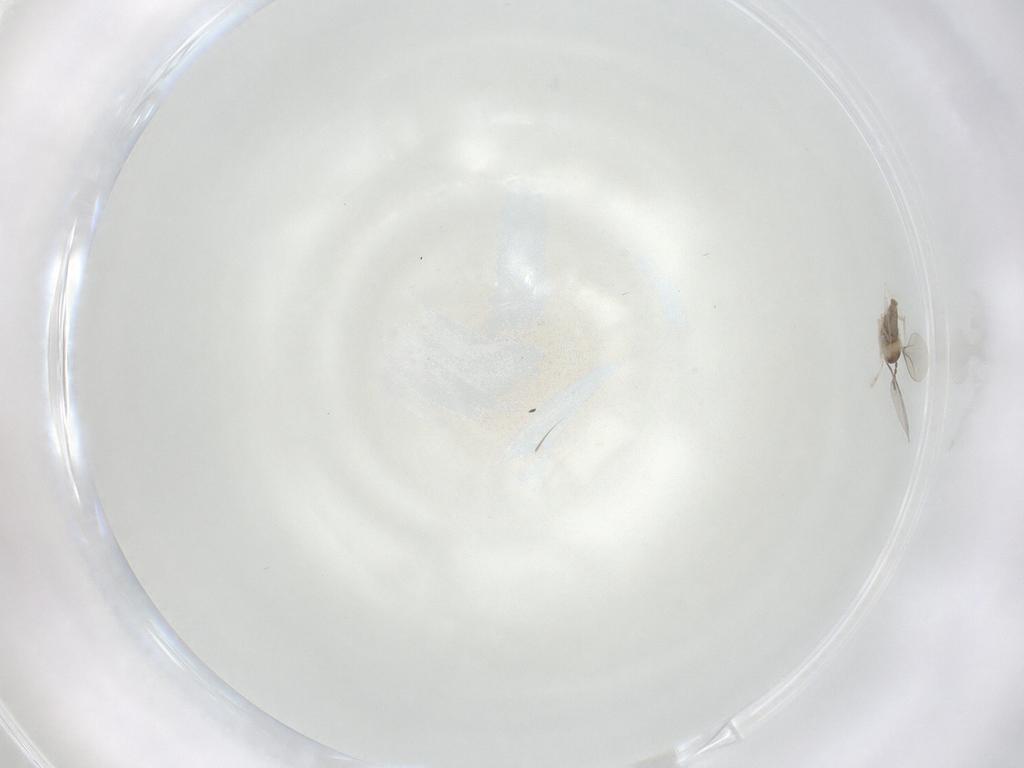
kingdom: Animalia
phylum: Arthropoda
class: Insecta
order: Diptera
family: Cecidomyiidae
